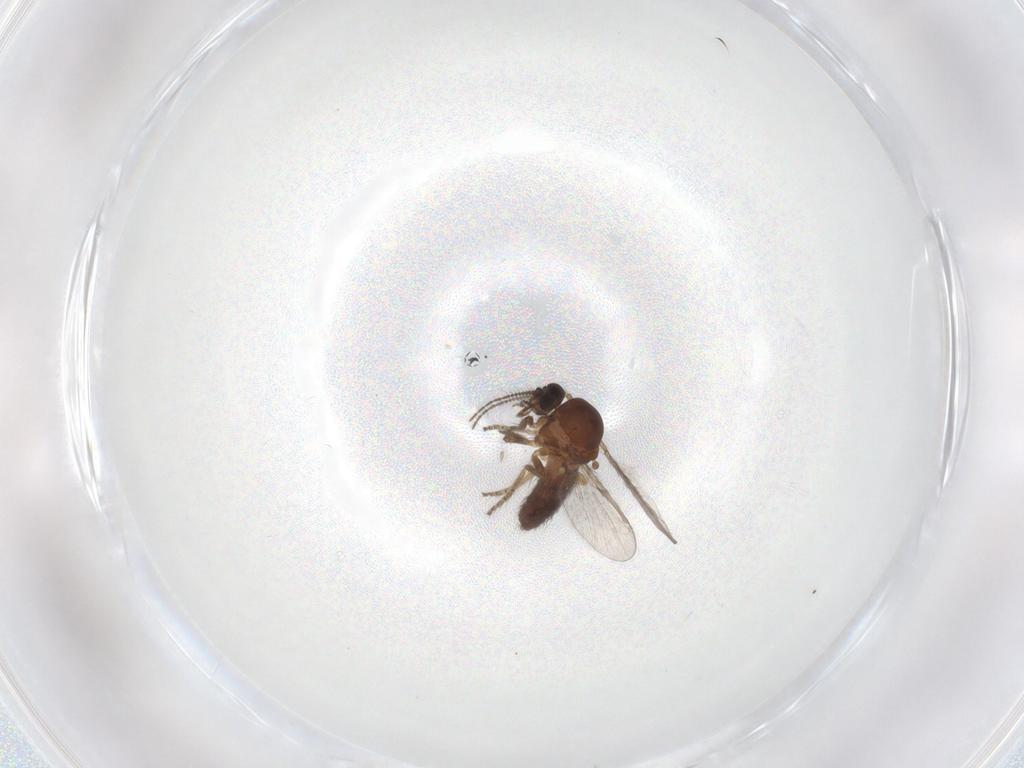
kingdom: Animalia
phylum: Arthropoda
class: Insecta
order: Diptera
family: Ceratopogonidae
